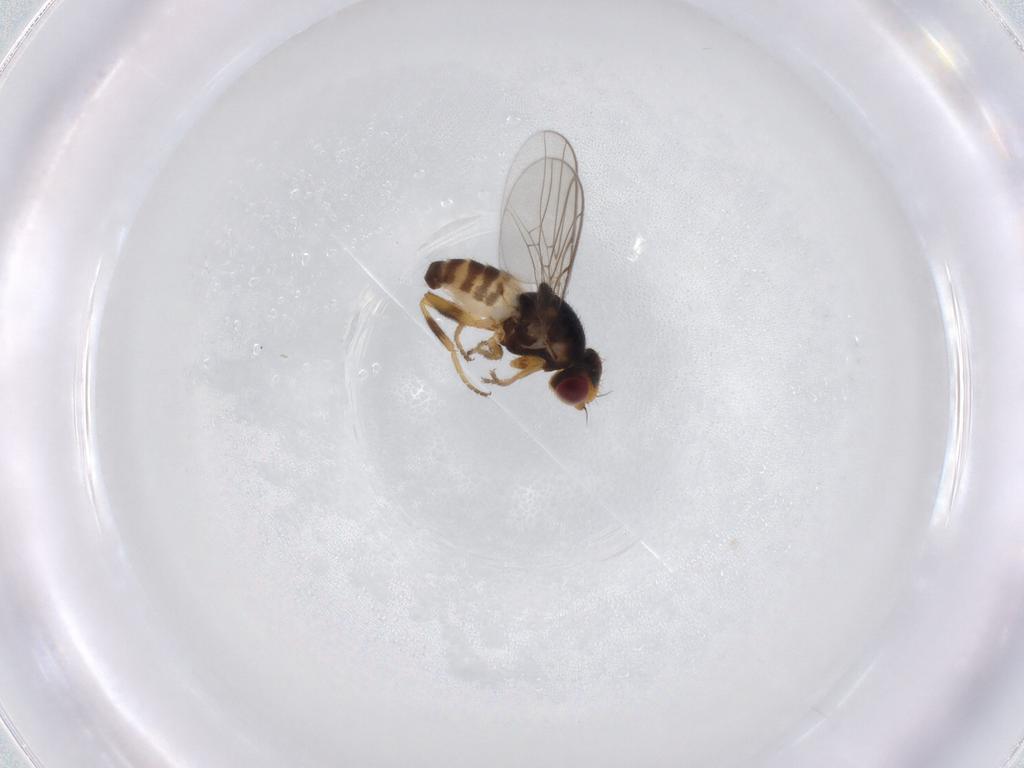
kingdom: Animalia
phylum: Arthropoda
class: Insecta
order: Diptera
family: Chloropidae
